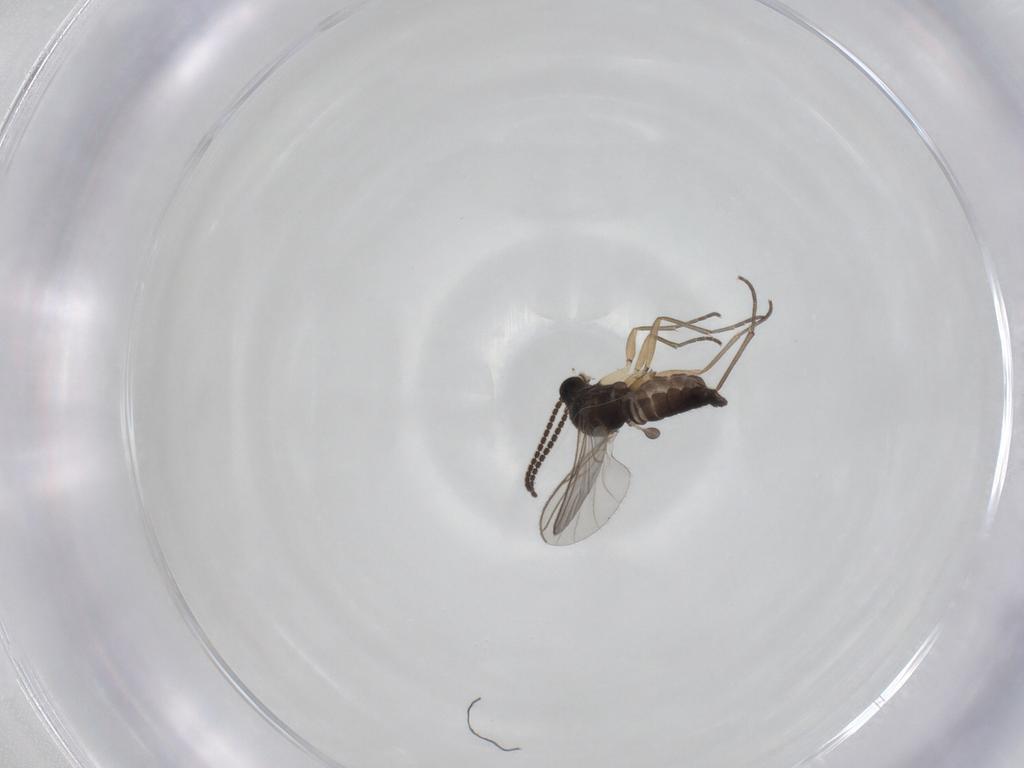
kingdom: Animalia
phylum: Arthropoda
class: Insecta
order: Diptera
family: Sciaridae
